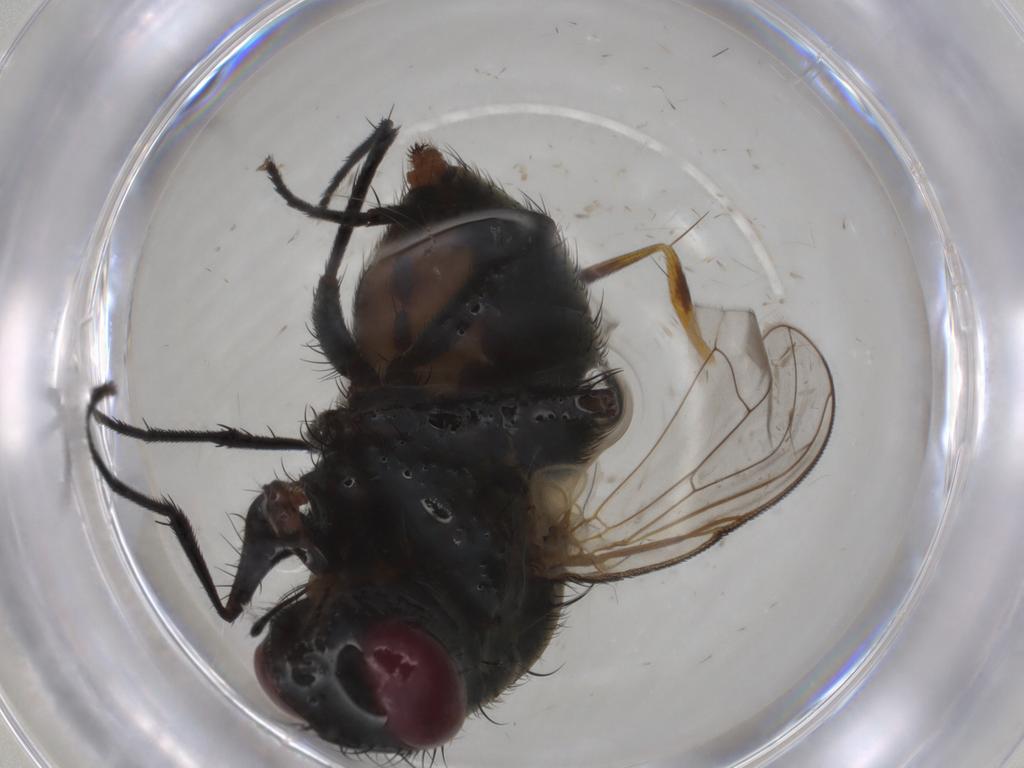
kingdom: Animalia
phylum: Arthropoda
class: Insecta
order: Diptera
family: Muscidae
